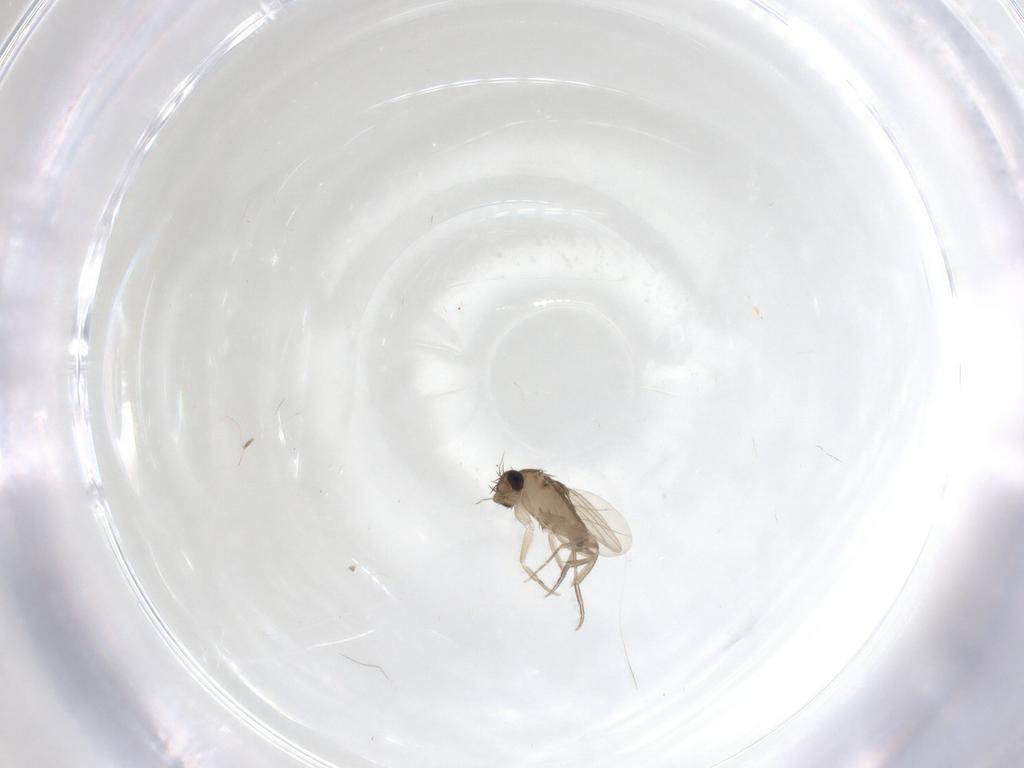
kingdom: Animalia
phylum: Arthropoda
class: Insecta
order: Diptera
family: Phoridae
